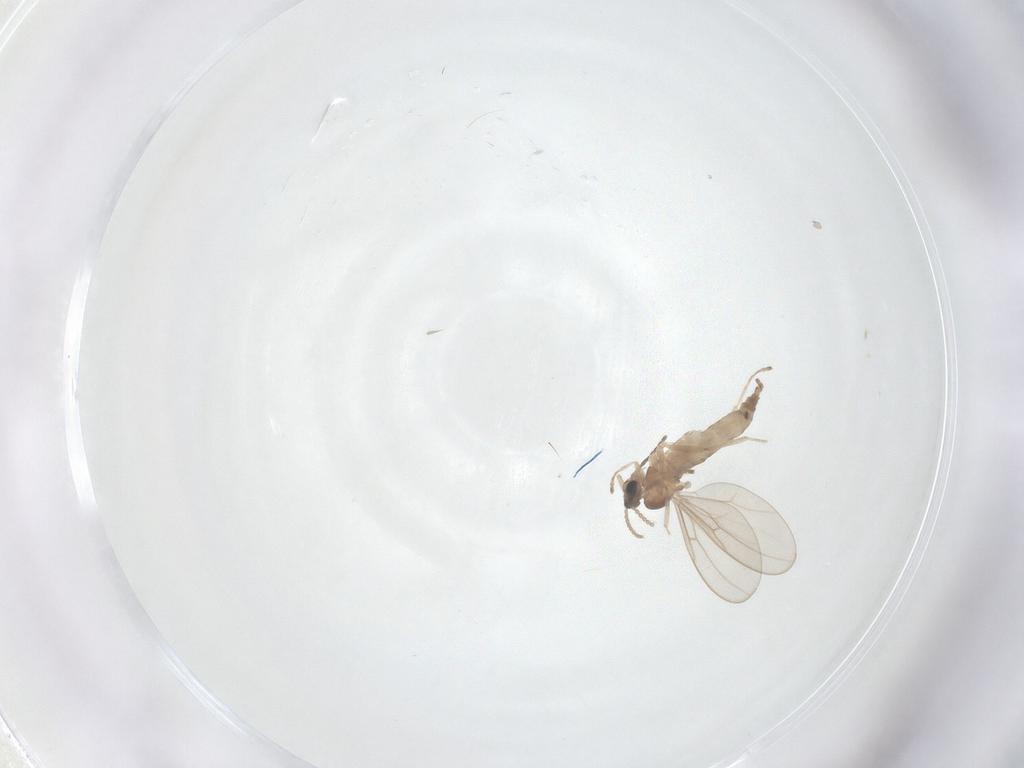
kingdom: Animalia
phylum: Arthropoda
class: Insecta
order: Diptera
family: Cecidomyiidae
